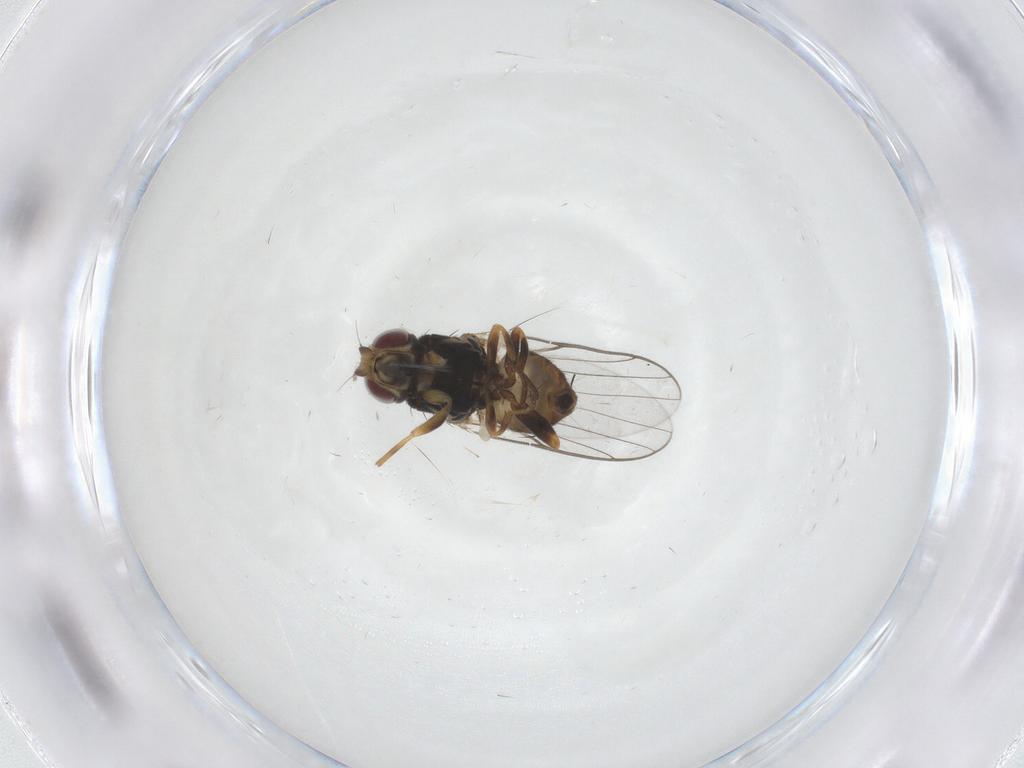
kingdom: Animalia
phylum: Arthropoda
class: Insecta
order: Diptera
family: Chloropidae
